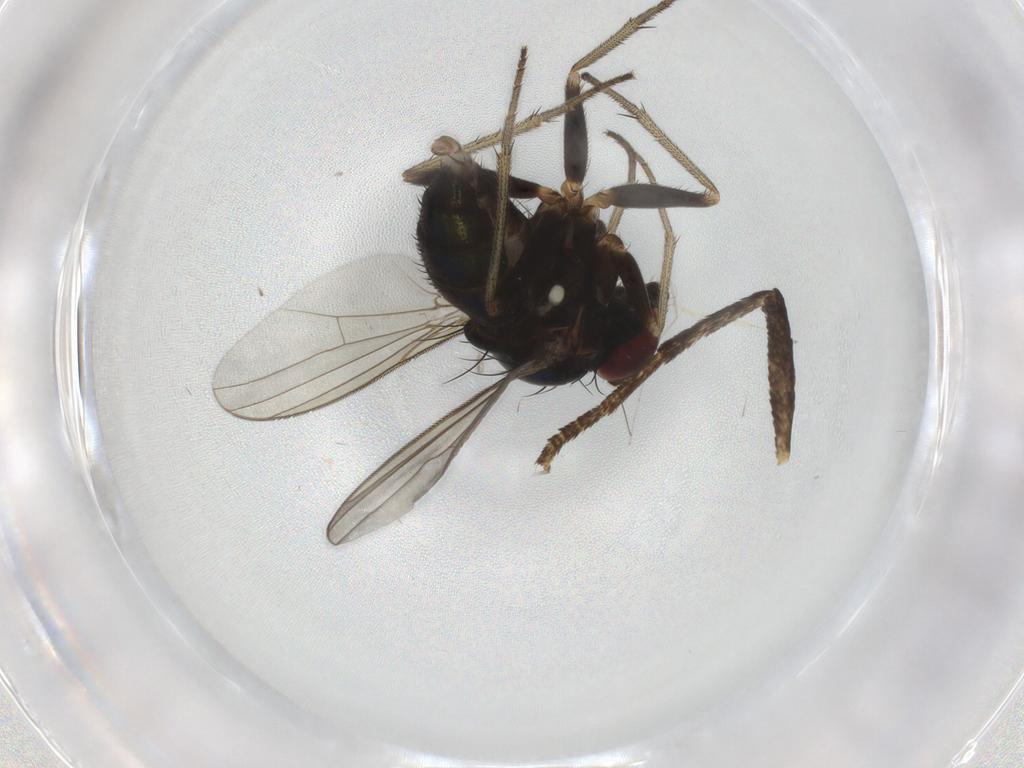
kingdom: Animalia
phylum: Arthropoda
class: Insecta
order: Diptera
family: Dolichopodidae
